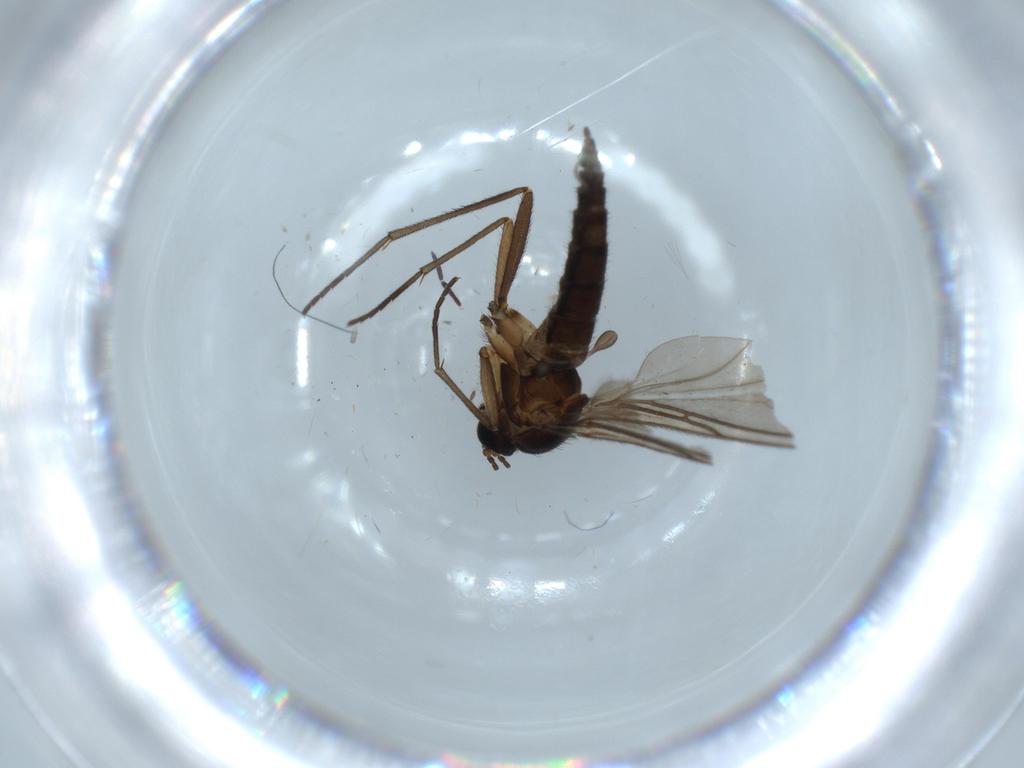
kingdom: Animalia
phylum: Arthropoda
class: Insecta
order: Diptera
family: Sciaridae
